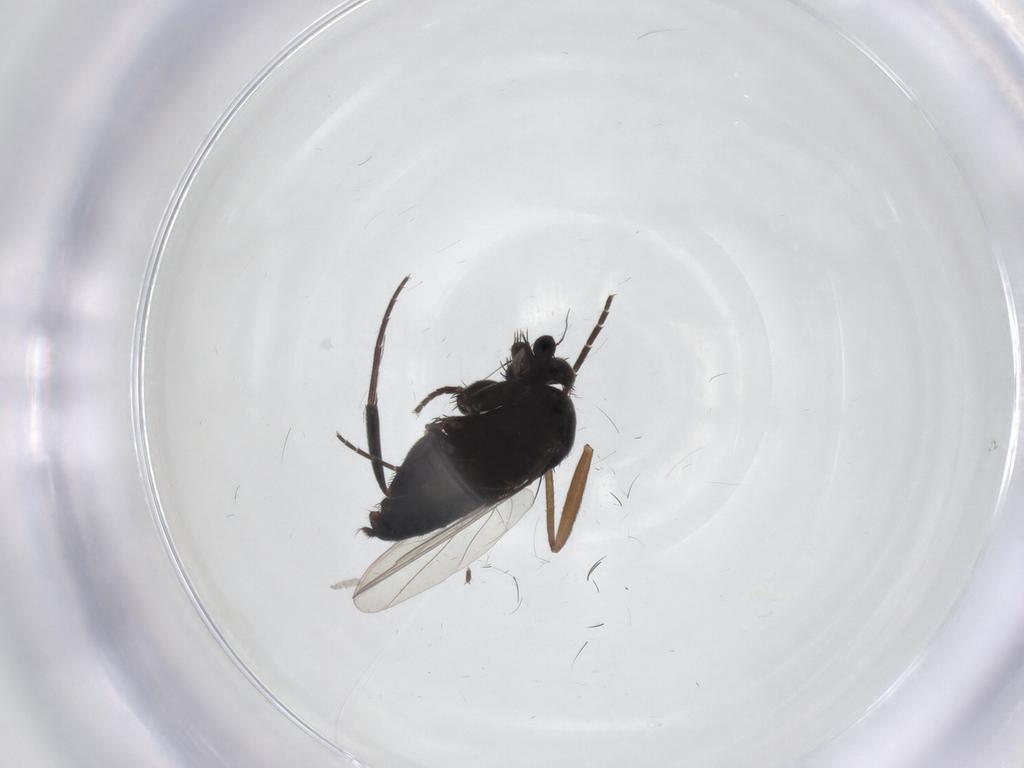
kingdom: Animalia
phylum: Arthropoda
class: Insecta
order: Diptera
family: Phoridae
